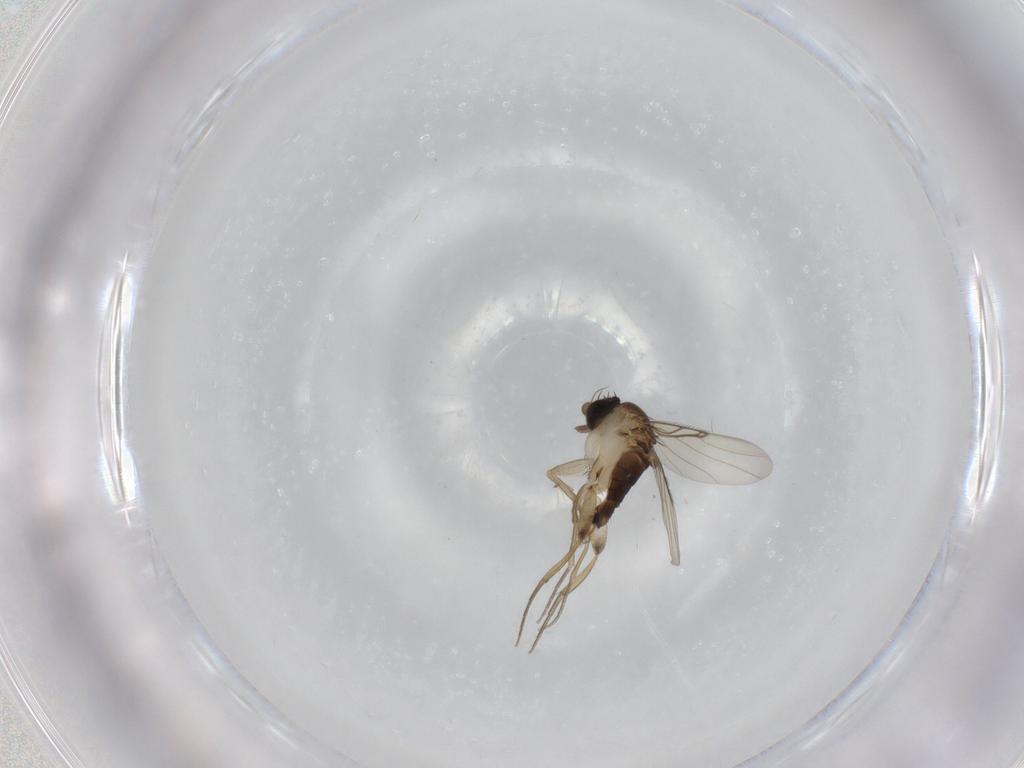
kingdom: Animalia
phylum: Arthropoda
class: Insecta
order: Diptera
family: Phoridae
